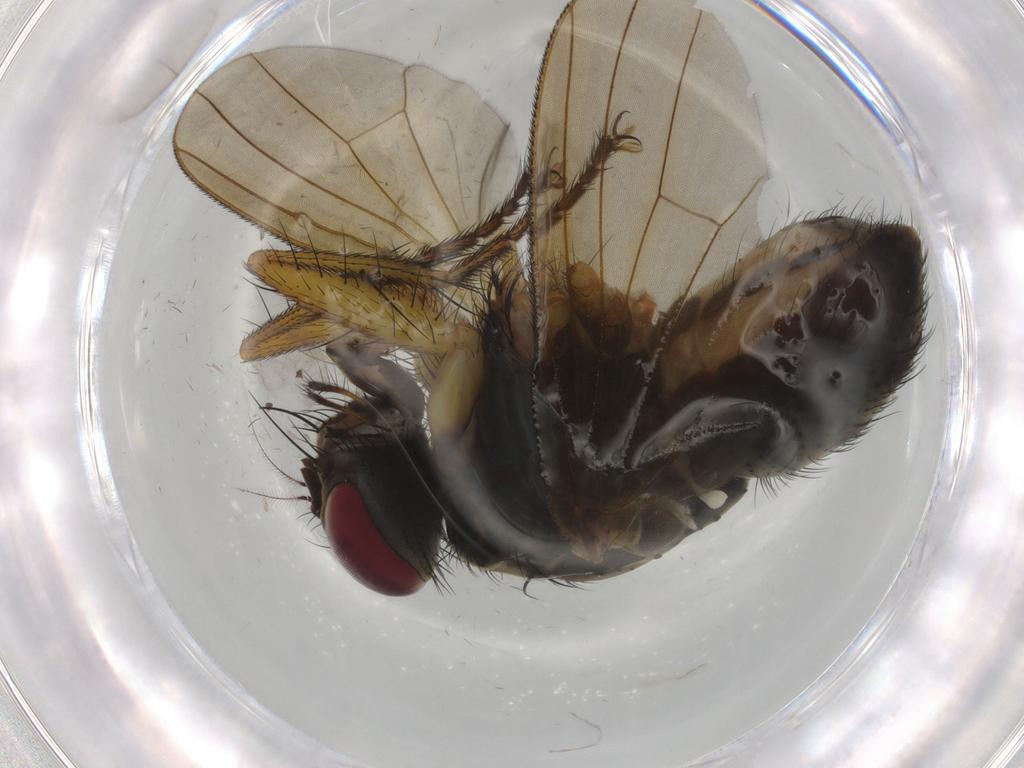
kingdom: Animalia
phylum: Arthropoda
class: Insecta
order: Diptera
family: Muscidae
